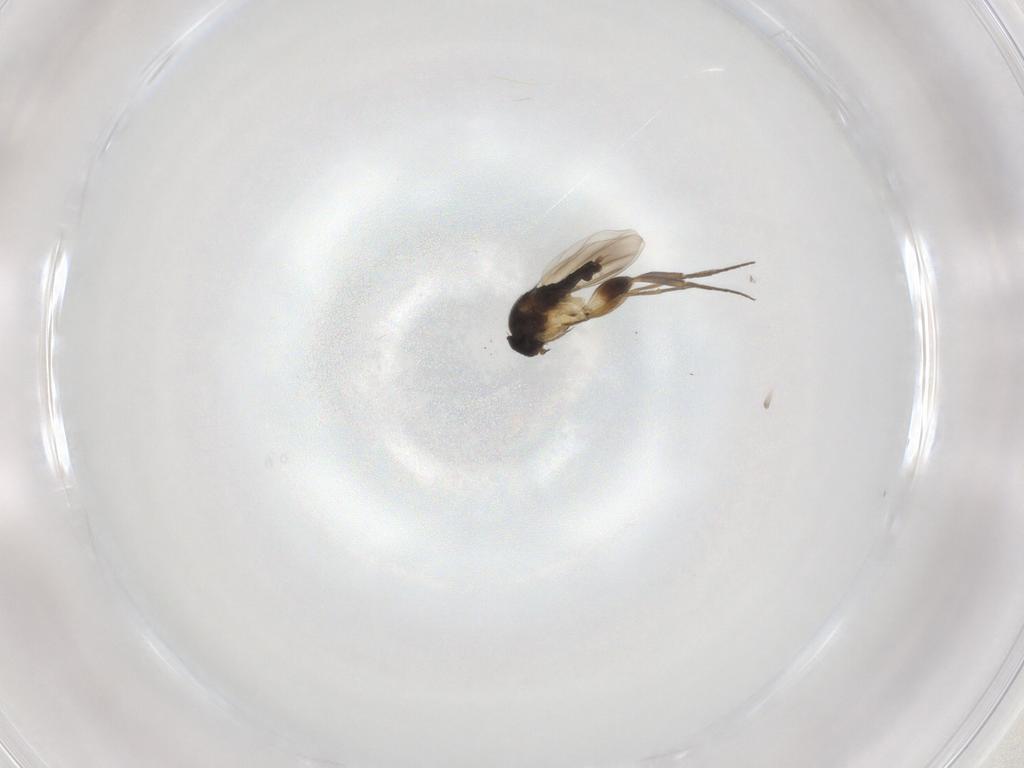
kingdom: Animalia
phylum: Arthropoda
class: Insecta
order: Diptera
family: Phoridae
